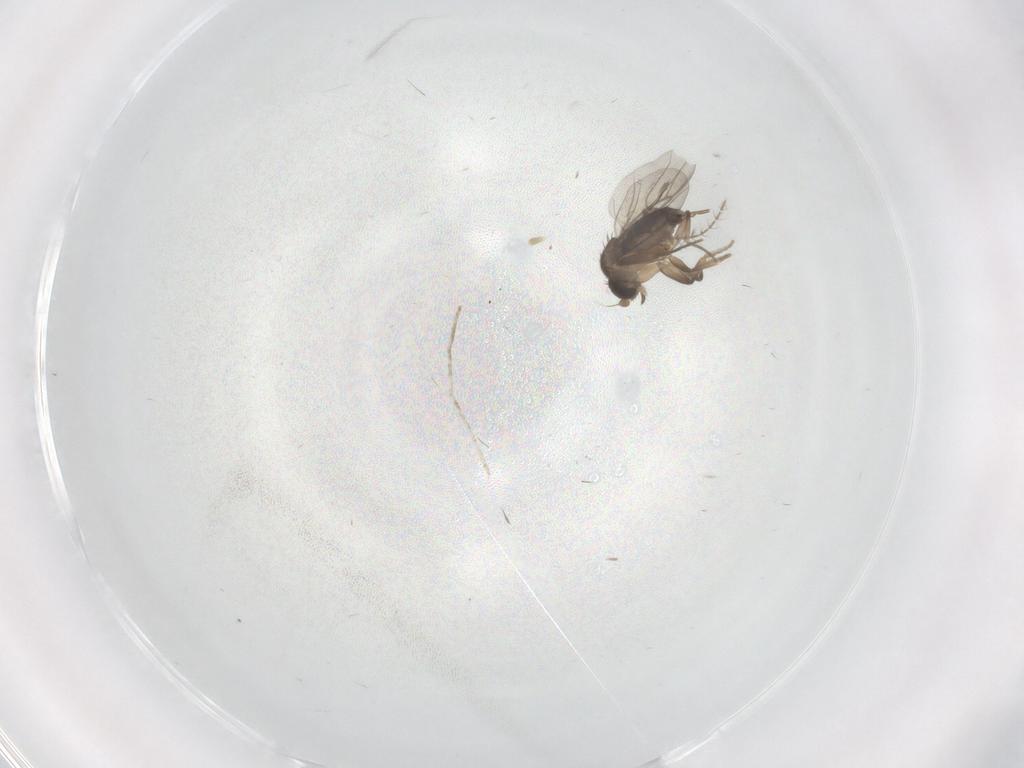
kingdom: Animalia
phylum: Arthropoda
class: Insecta
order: Diptera
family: Phoridae
